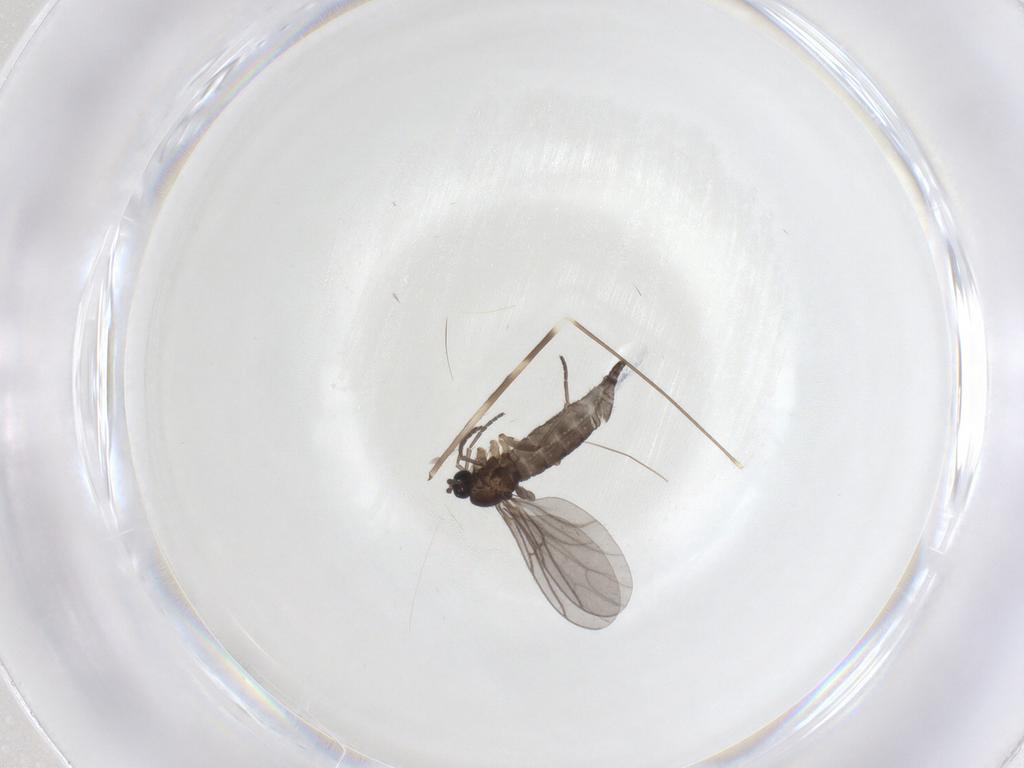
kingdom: Animalia
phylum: Arthropoda
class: Insecta
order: Diptera
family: Sciaridae
